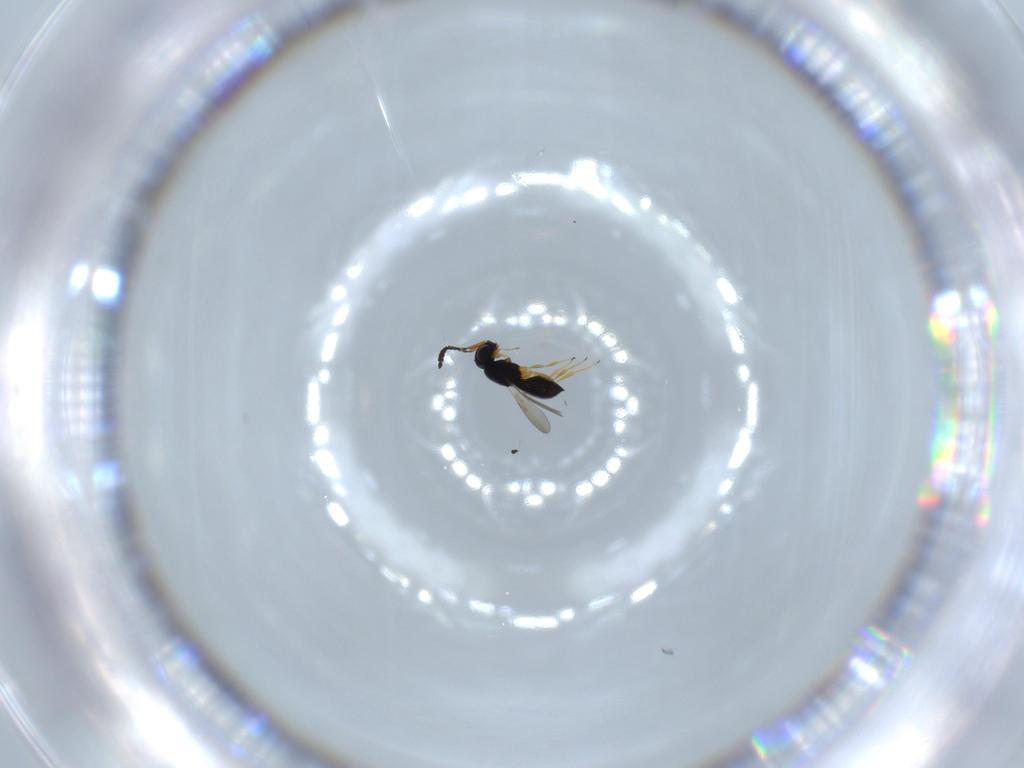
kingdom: Animalia
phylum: Arthropoda
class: Insecta
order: Hymenoptera
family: Scelionidae
